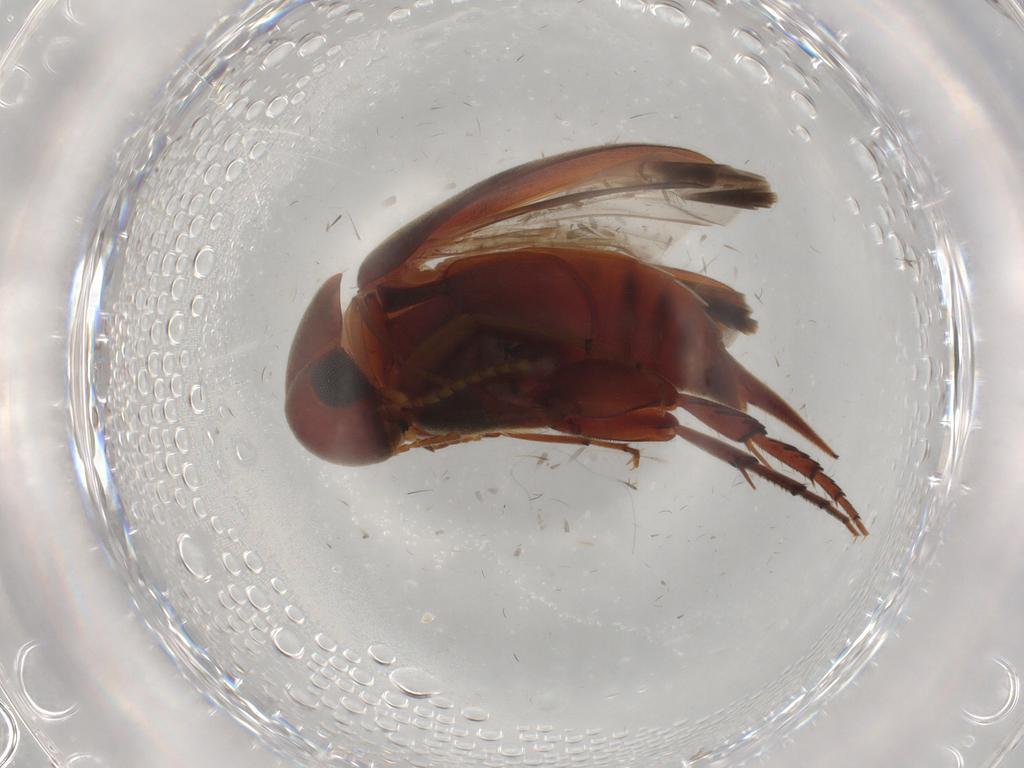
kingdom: Animalia
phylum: Arthropoda
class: Insecta
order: Coleoptera
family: Mordellidae
